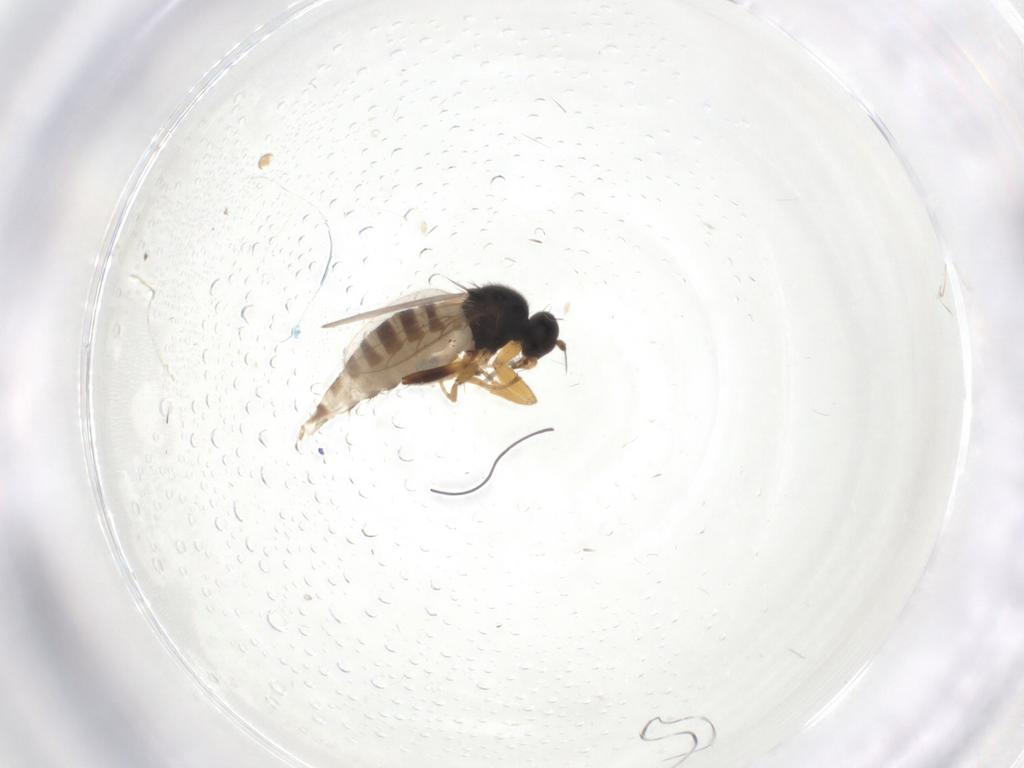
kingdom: Animalia
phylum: Arthropoda
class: Insecta
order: Diptera
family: Hybotidae
